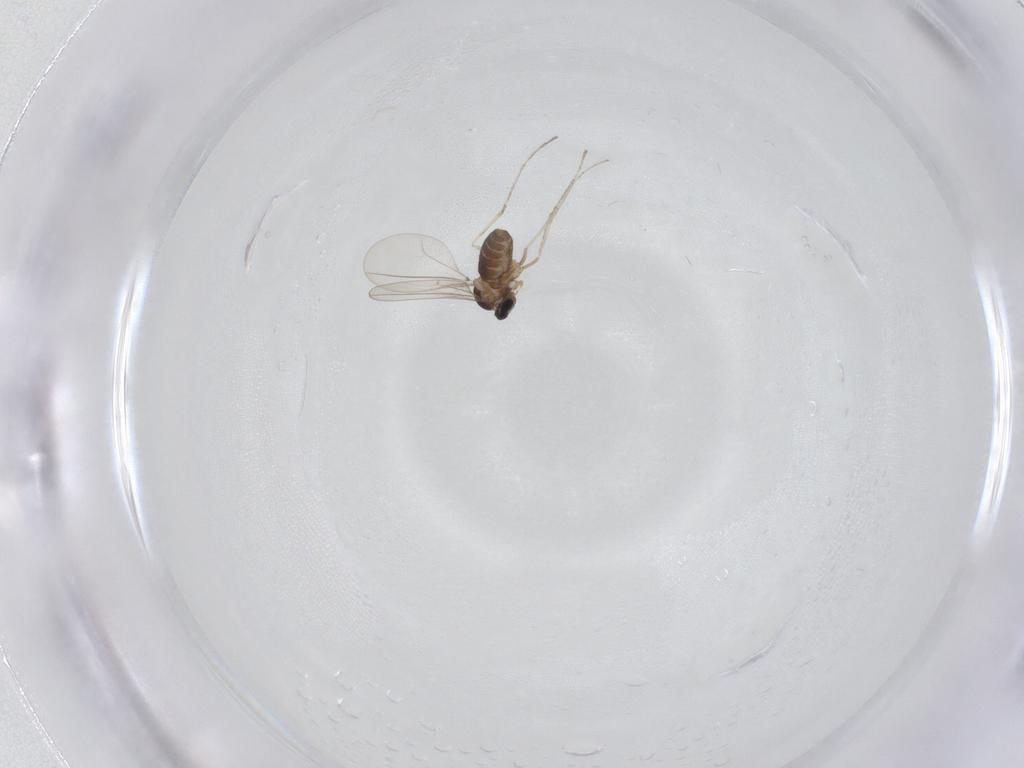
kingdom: Animalia
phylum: Arthropoda
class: Insecta
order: Diptera
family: Cecidomyiidae
